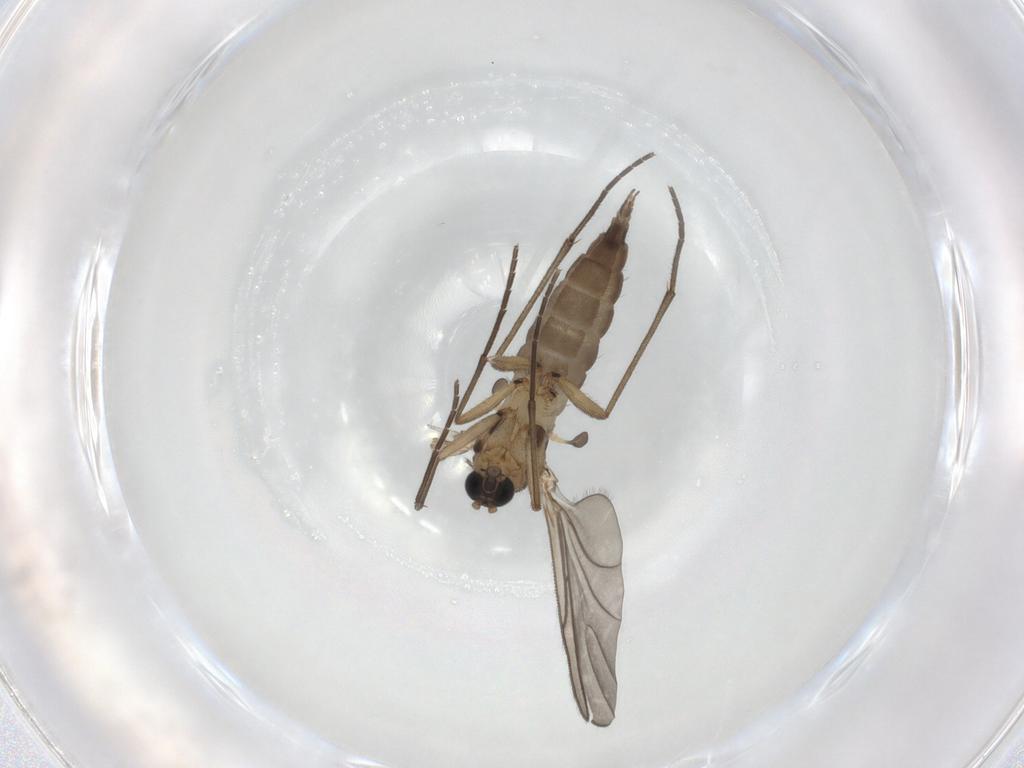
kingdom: Animalia
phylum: Arthropoda
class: Insecta
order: Diptera
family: Sciaridae
